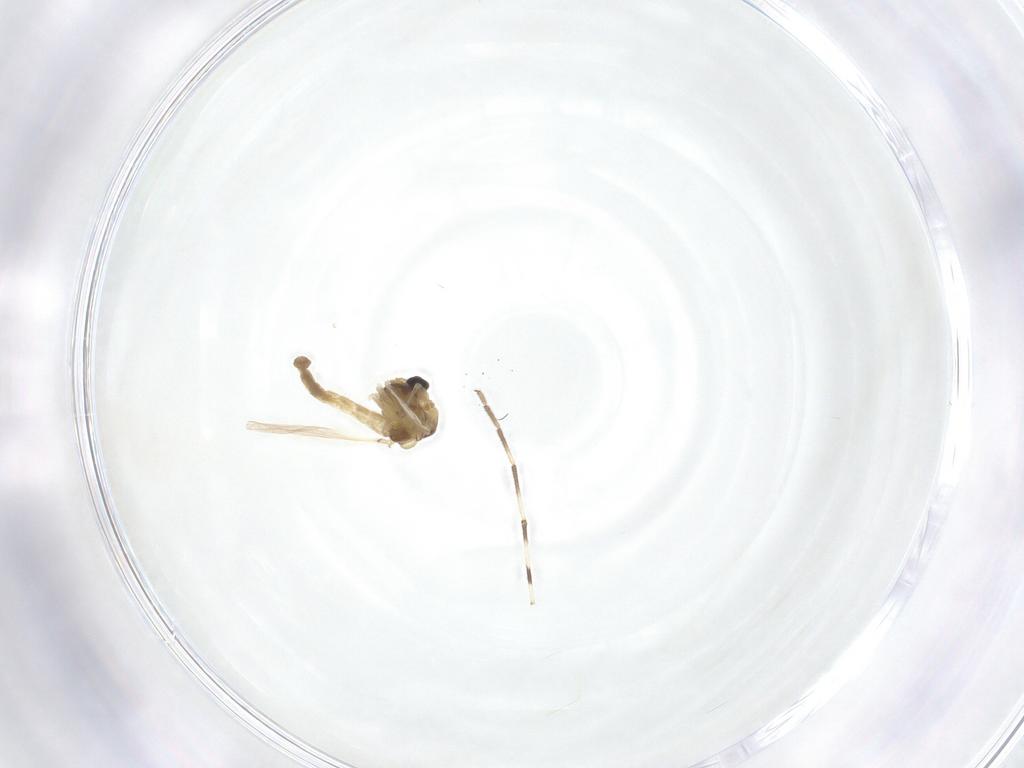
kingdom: Animalia
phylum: Arthropoda
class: Insecta
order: Diptera
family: Chironomidae
